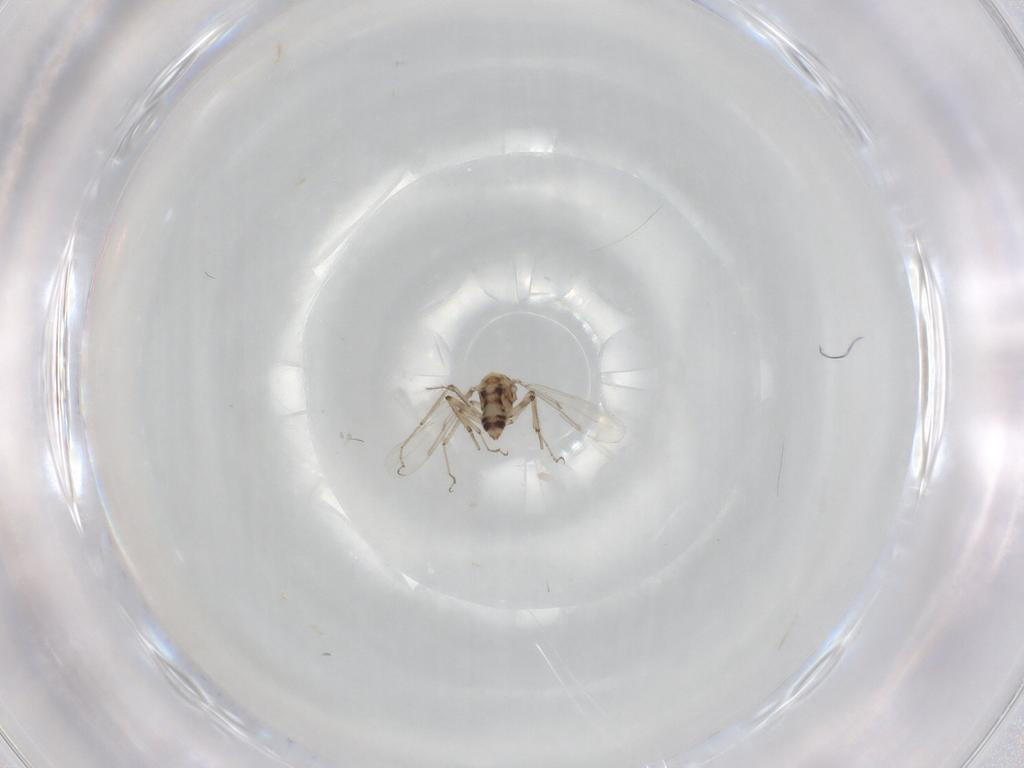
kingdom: Animalia
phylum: Arthropoda
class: Insecta
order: Diptera
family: Ceratopogonidae
